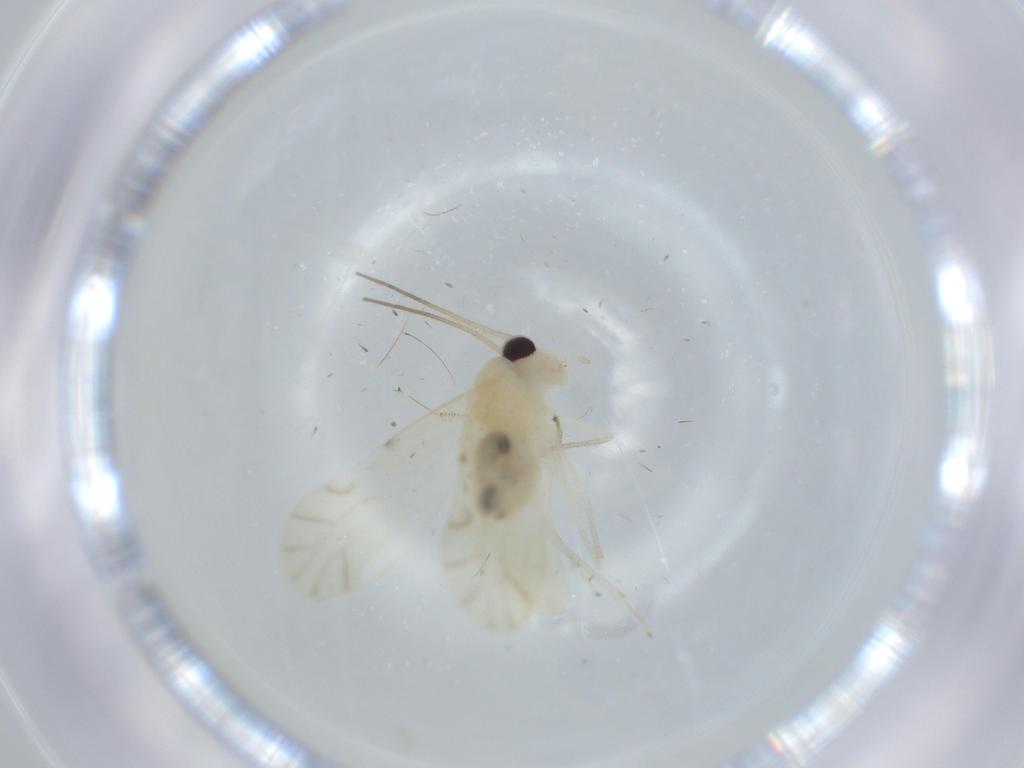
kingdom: Animalia
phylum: Arthropoda
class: Insecta
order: Psocodea
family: Caeciliusidae
